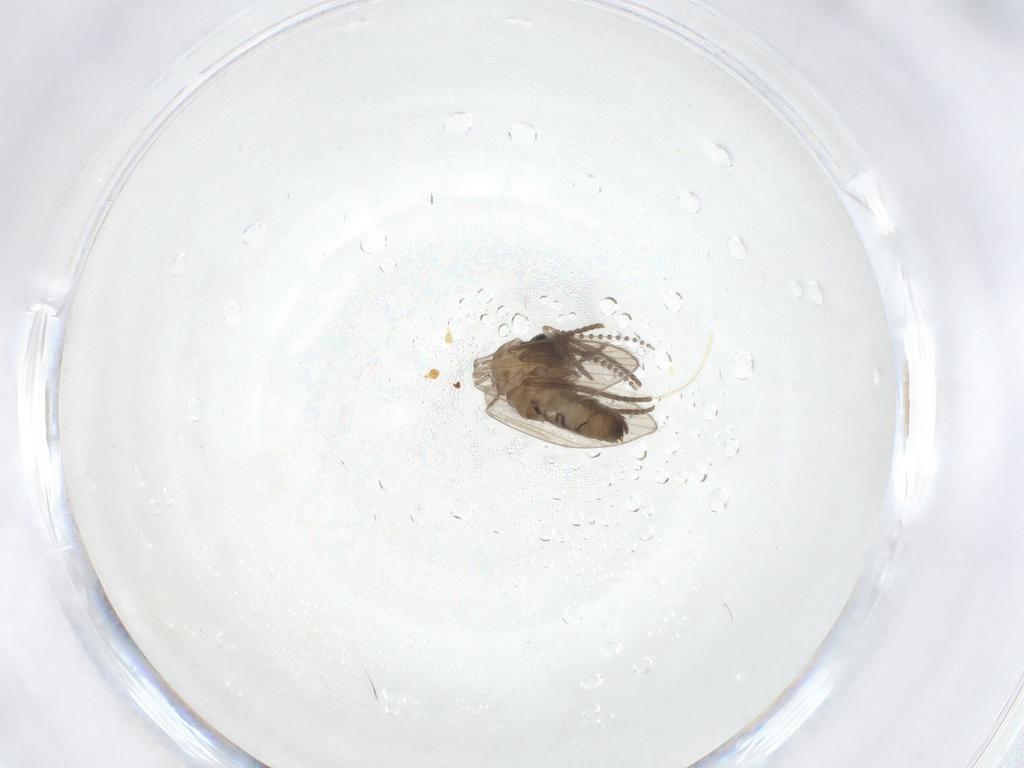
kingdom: Animalia
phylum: Arthropoda
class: Insecta
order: Diptera
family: Psychodidae
